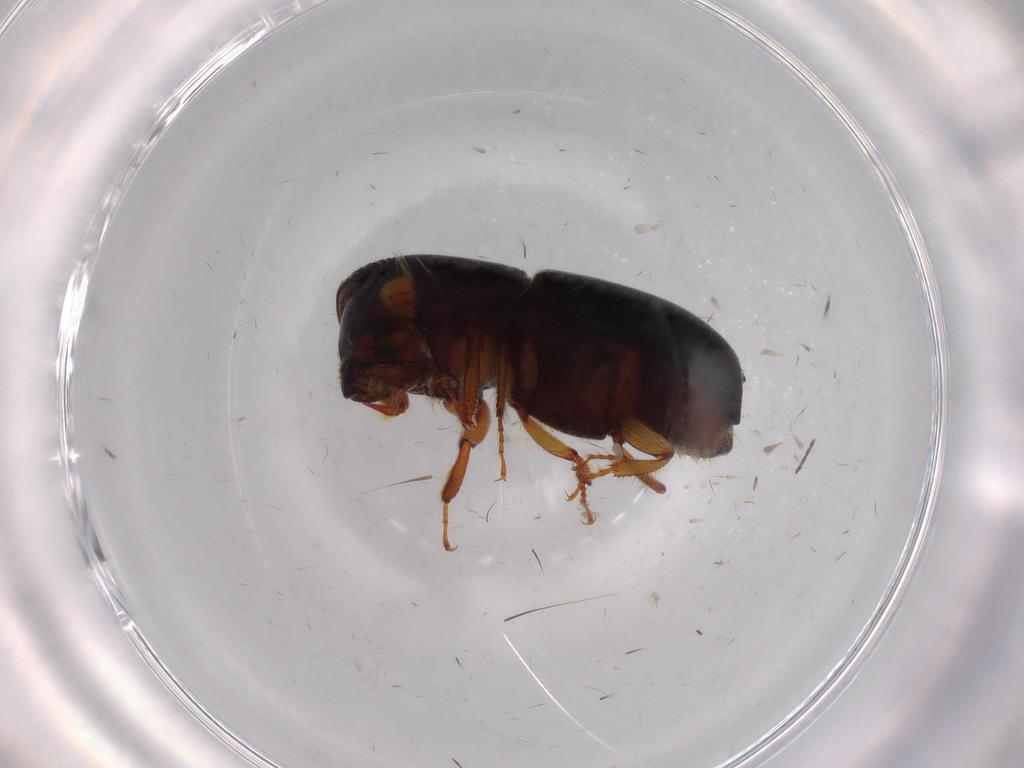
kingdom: Animalia
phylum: Arthropoda
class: Insecta
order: Coleoptera
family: Curculionidae
